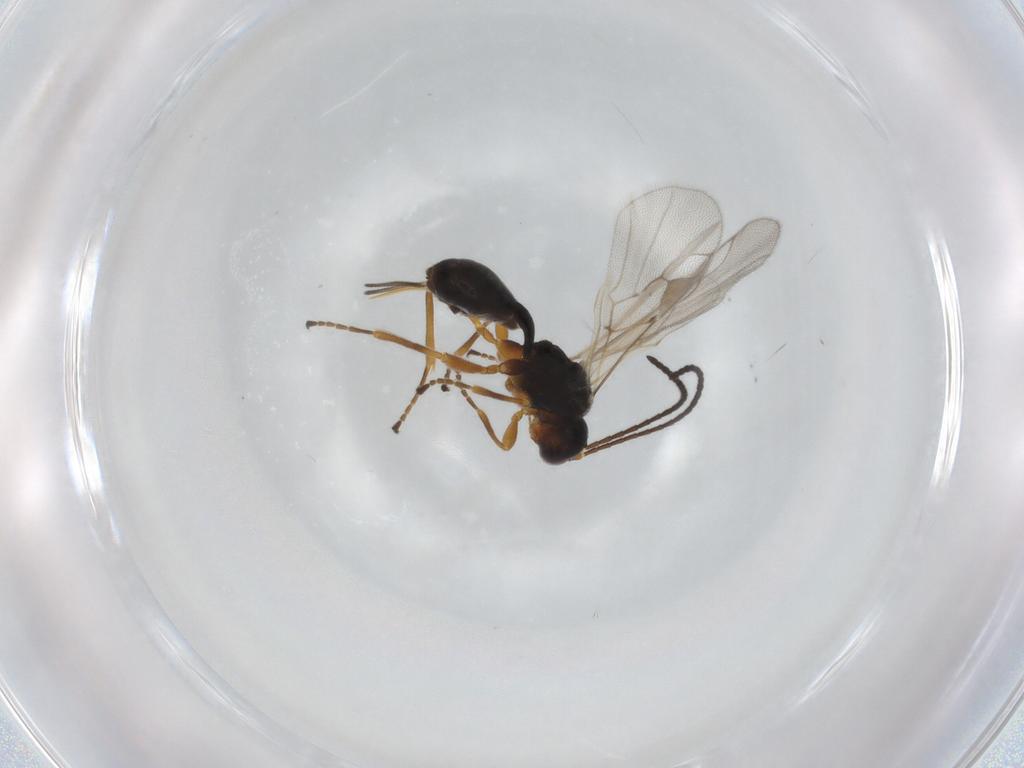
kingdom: Animalia
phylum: Arthropoda
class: Insecta
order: Hymenoptera
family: Braconidae
